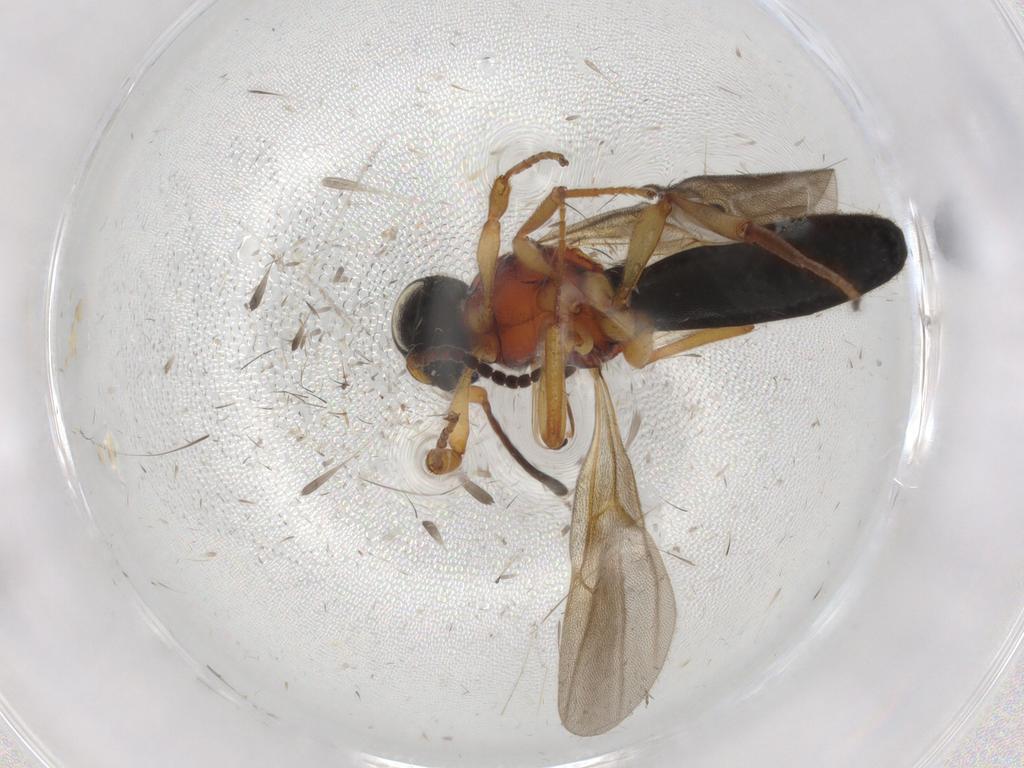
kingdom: Animalia
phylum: Arthropoda
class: Insecta
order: Hymenoptera
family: Scelionidae
